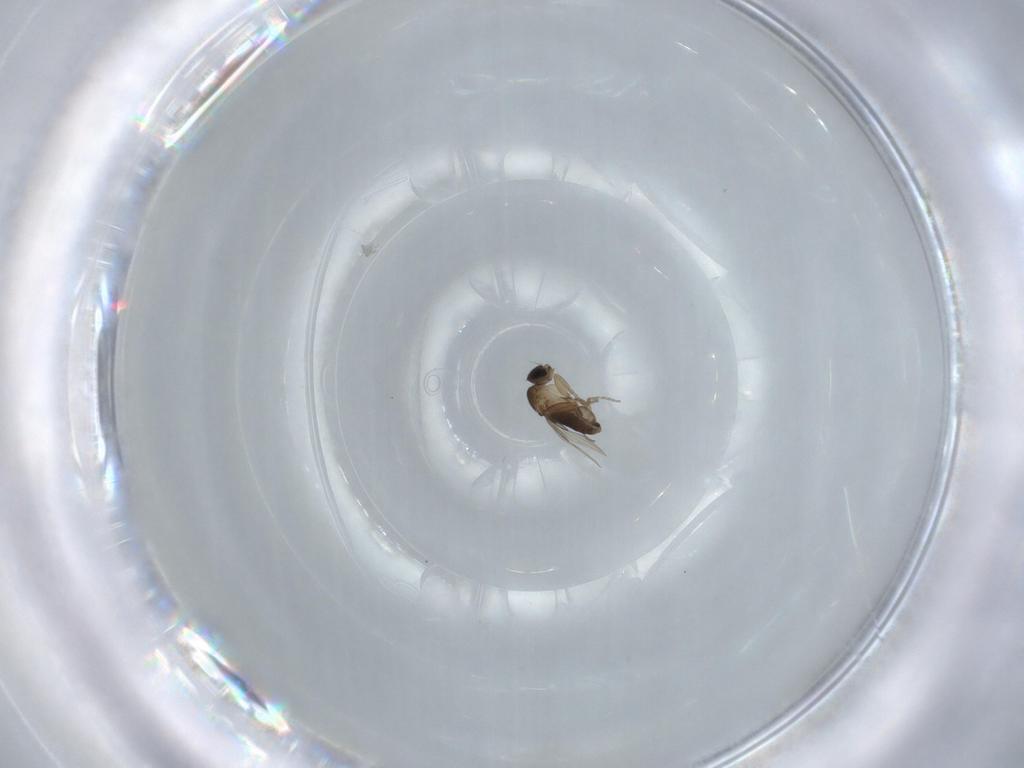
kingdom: Animalia
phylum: Arthropoda
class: Insecta
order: Diptera
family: Phoridae
